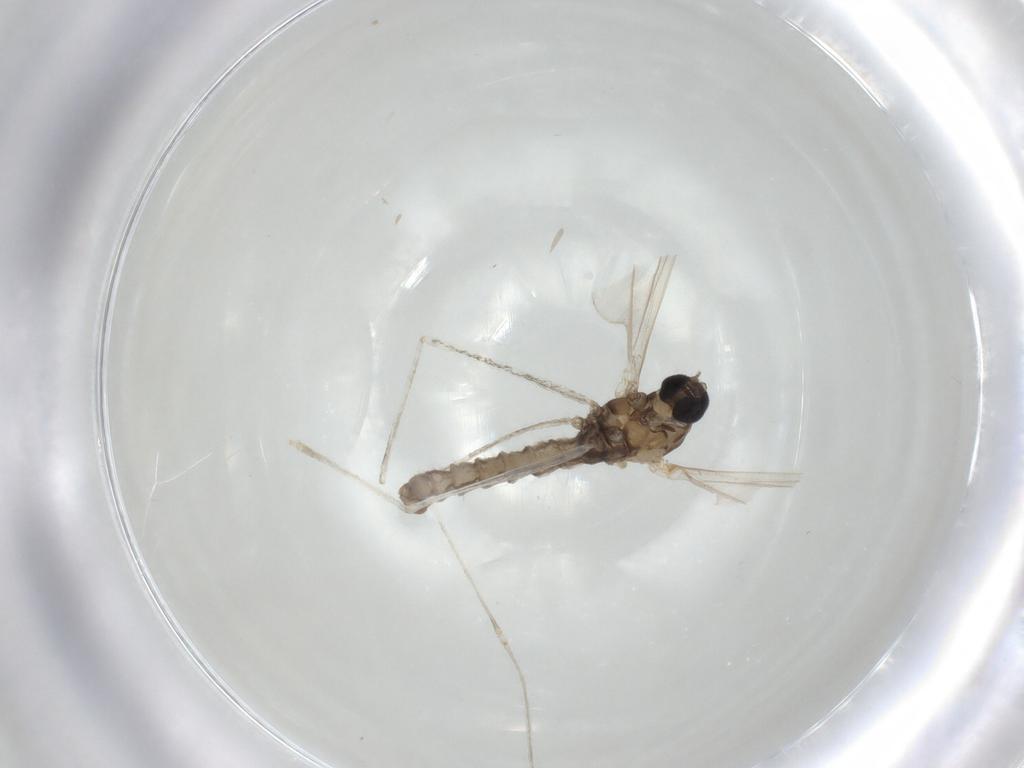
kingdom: Animalia
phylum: Arthropoda
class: Insecta
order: Diptera
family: Cecidomyiidae
